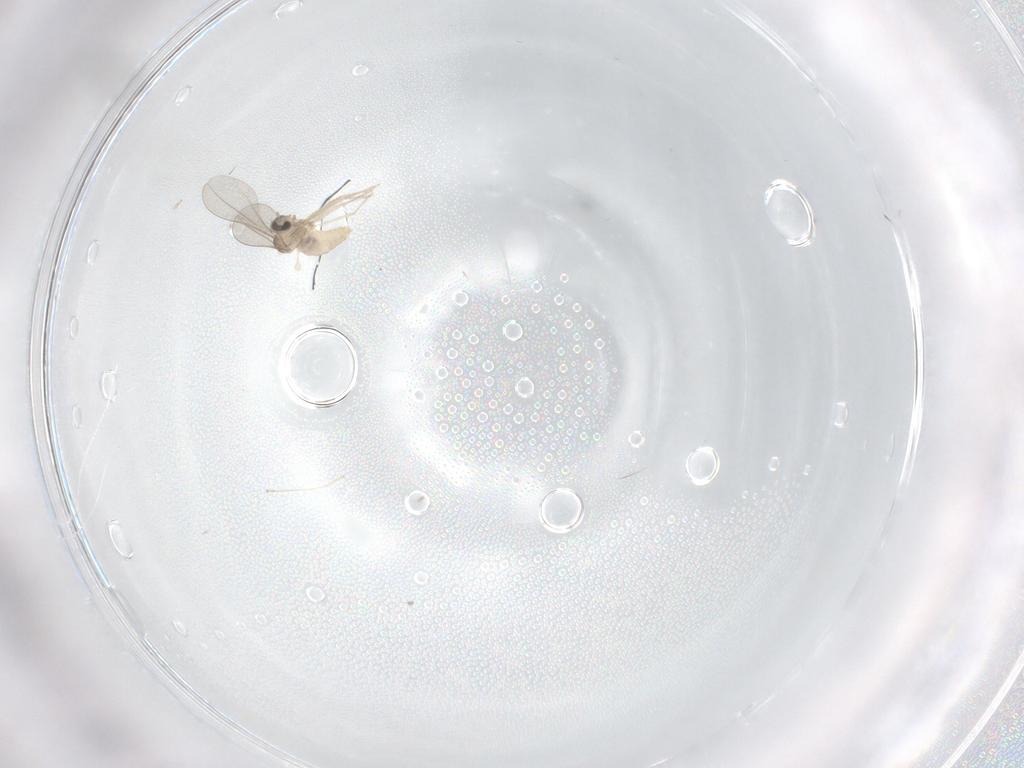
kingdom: Animalia
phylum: Arthropoda
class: Insecta
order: Diptera
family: Sciaridae
